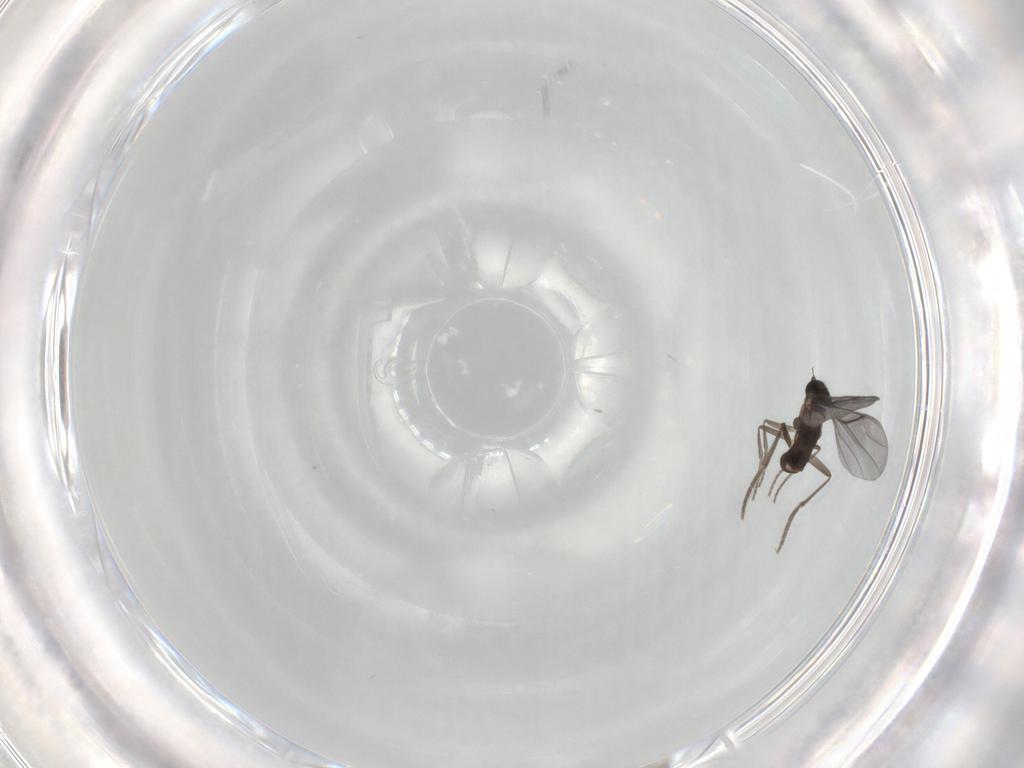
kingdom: Animalia
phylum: Arthropoda
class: Insecta
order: Diptera
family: Phoridae
